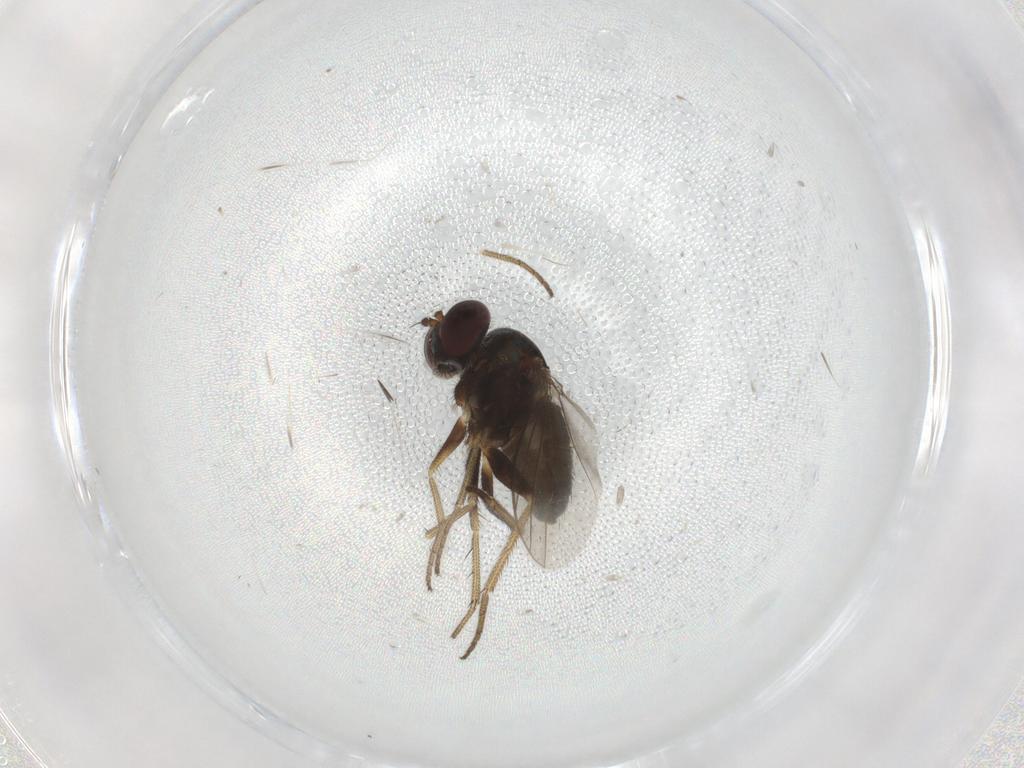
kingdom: Animalia
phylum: Arthropoda
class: Insecta
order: Diptera
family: Dolichopodidae
